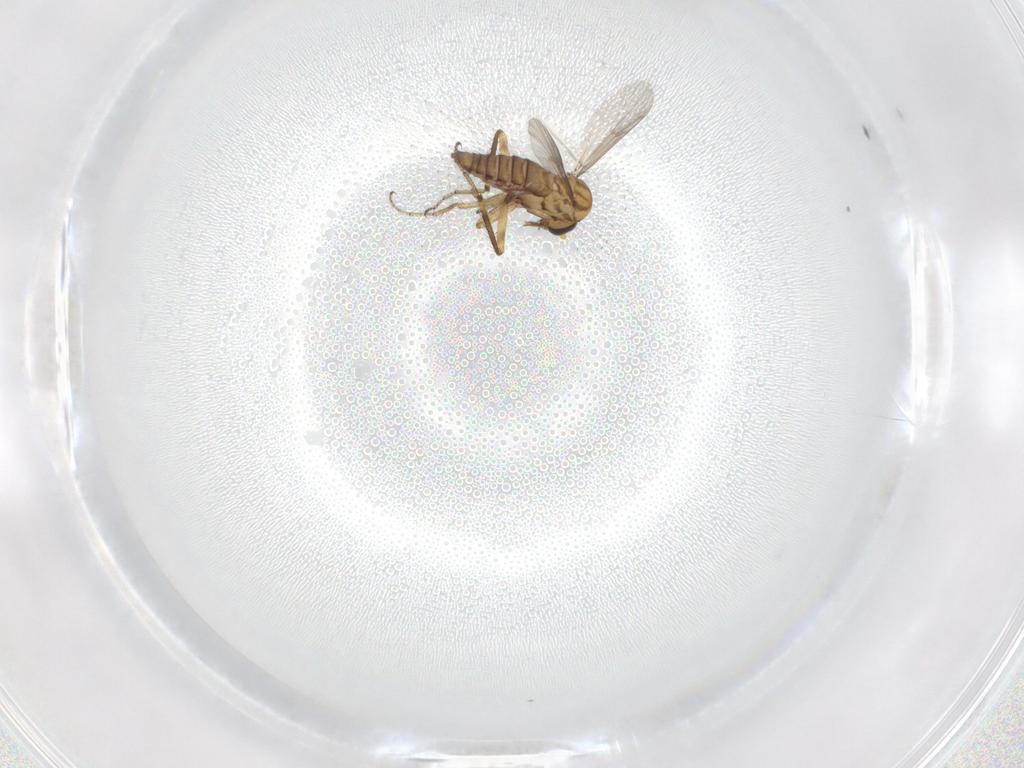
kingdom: Animalia
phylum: Arthropoda
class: Insecta
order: Diptera
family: Ceratopogonidae
